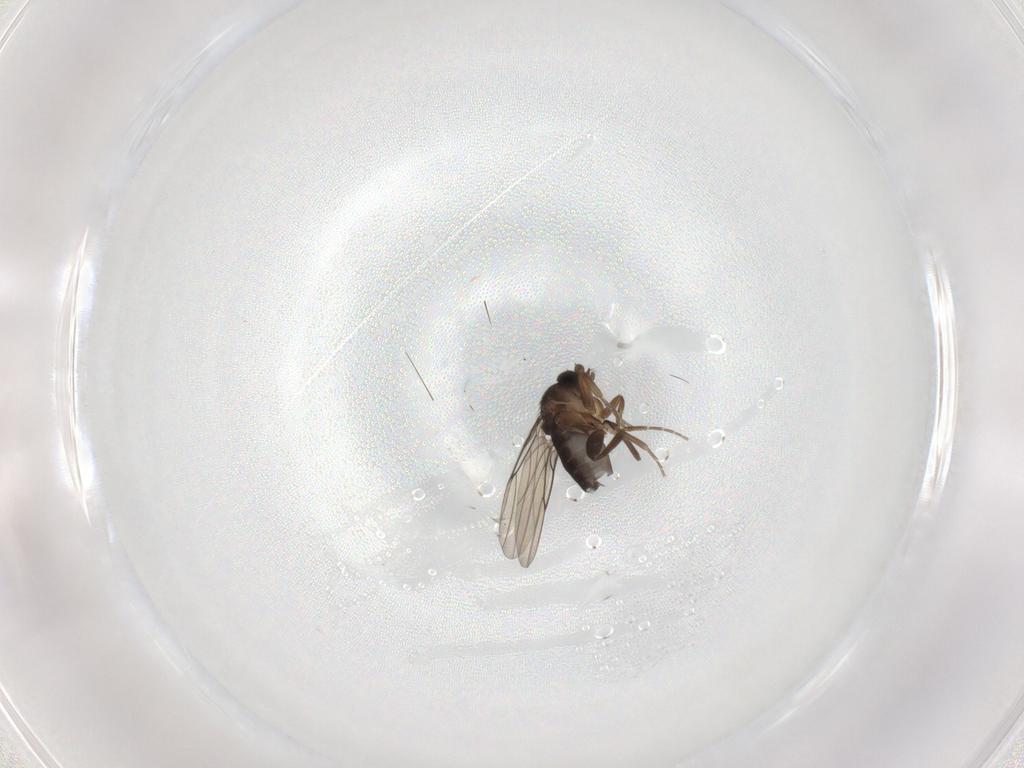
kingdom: Animalia
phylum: Arthropoda
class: Insecta
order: Diptera
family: Phoridae
